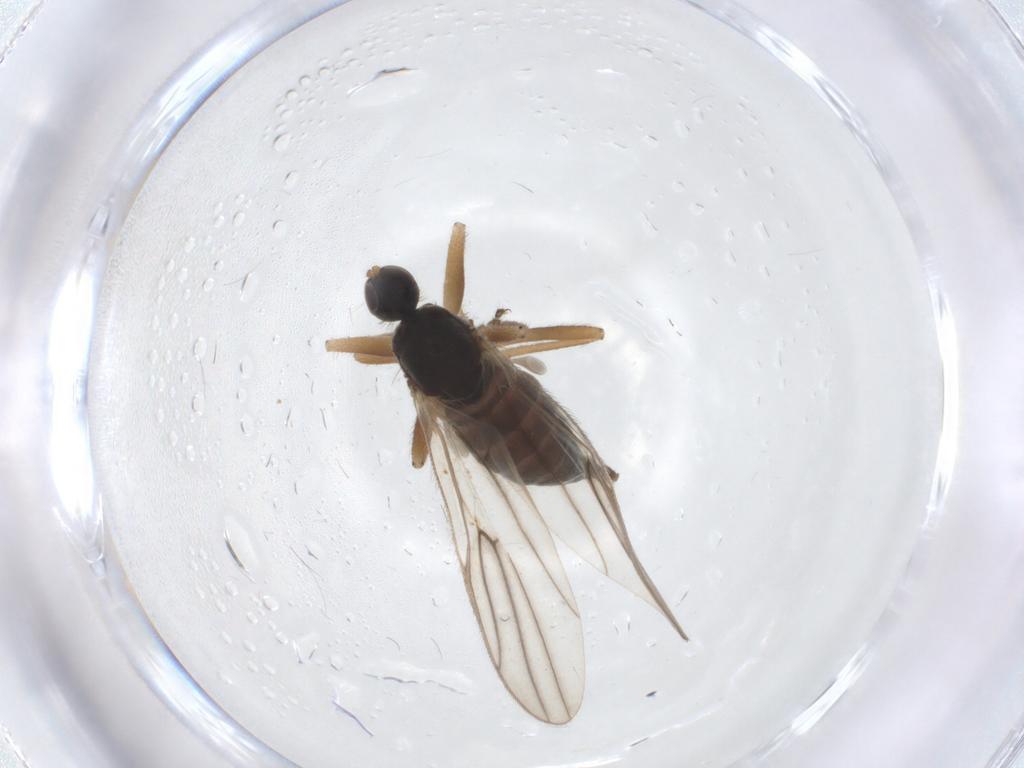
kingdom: Animalia
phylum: Arthropoda
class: Insecta
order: Diptera
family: Hybotidae
